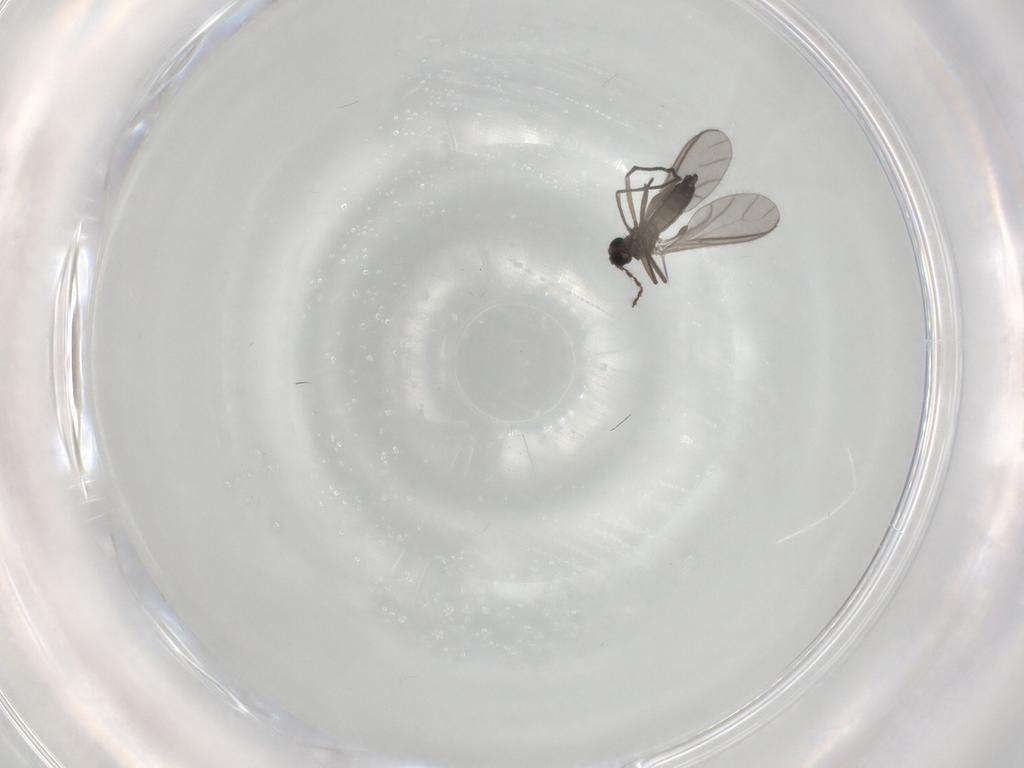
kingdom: Animalia
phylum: Arthropoda
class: Insecta
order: Diptera
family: Sciaridae
